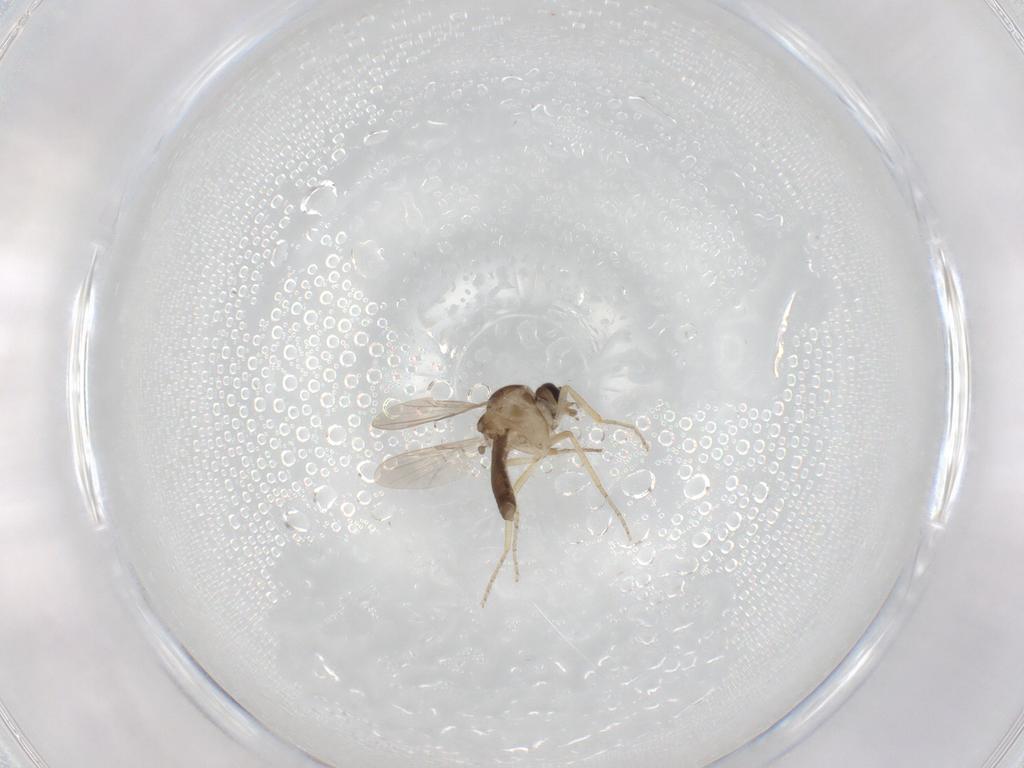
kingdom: Animalia
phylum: Arthropoda
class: Insecta
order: Diptera
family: Ceratopogonidae
